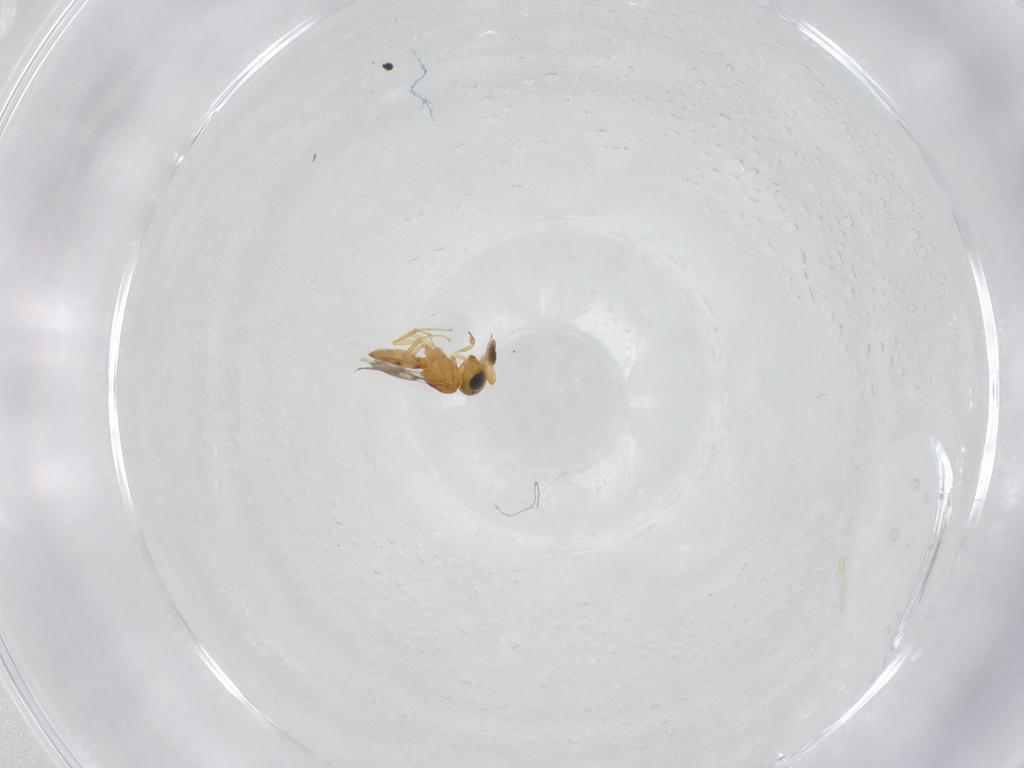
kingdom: Animalia
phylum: Arthropoda
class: Insecta
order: Hymenoptera
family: Scelionidae
